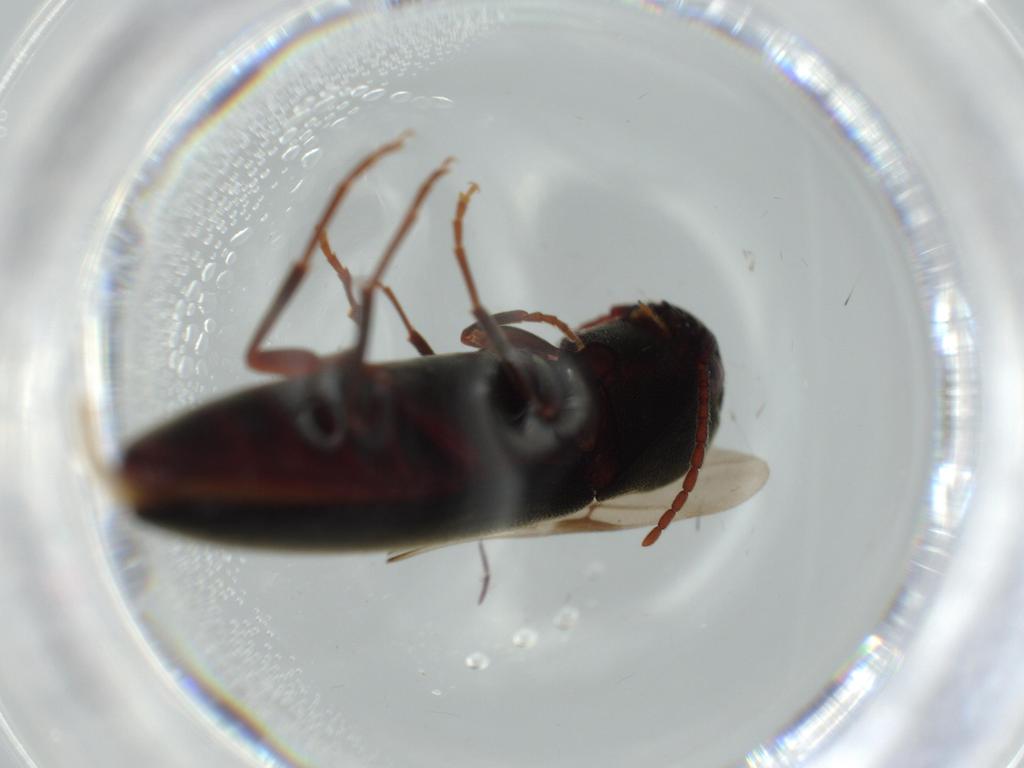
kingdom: Animalia
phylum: Arthropoda
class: Insecta
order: Coleoptera
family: Eucnemidae
